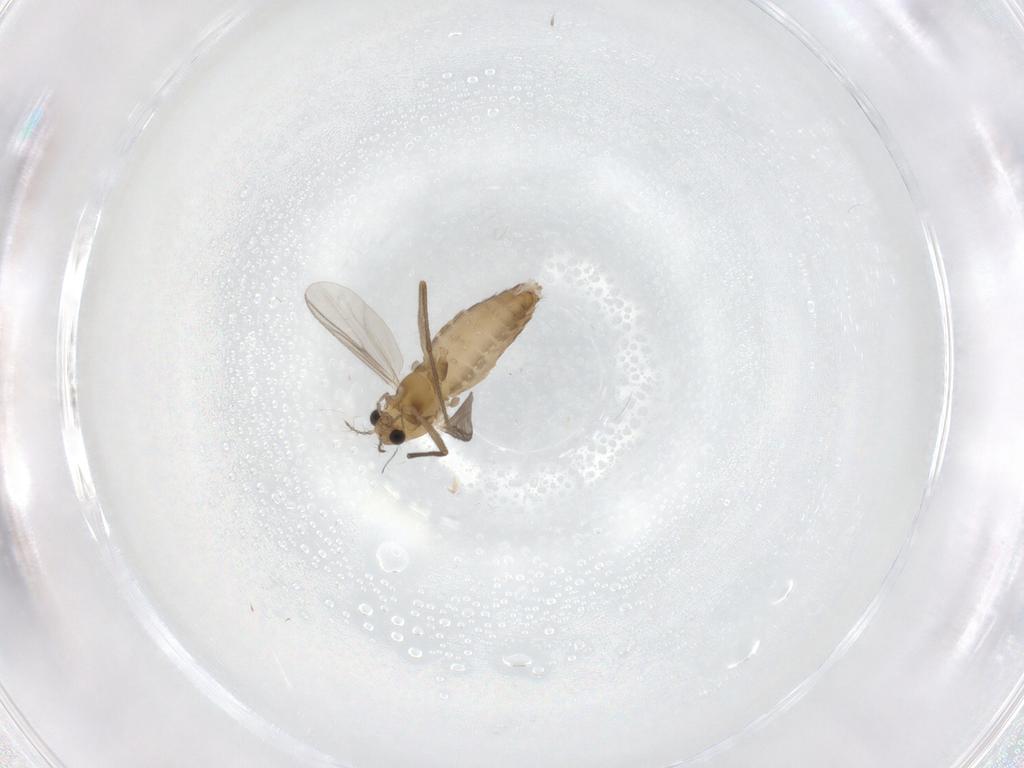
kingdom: Animalia
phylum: Arthropoda
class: Insecta
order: Diptera
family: Chironomidae
